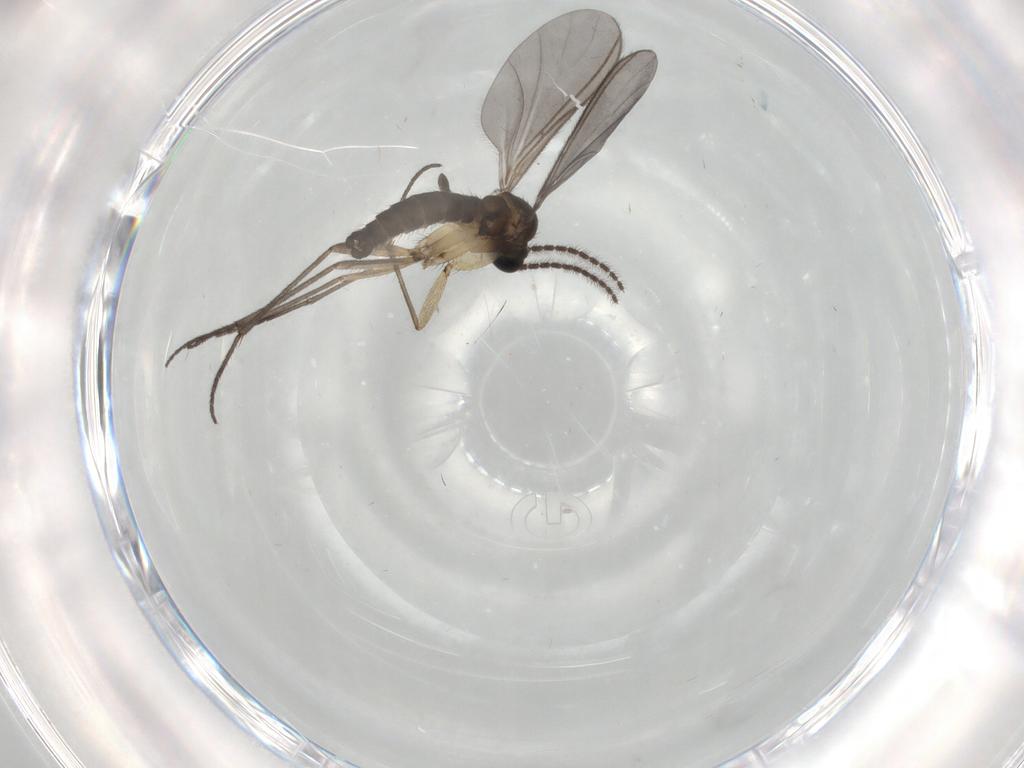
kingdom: Animalia
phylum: Arthropoda
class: Insecta
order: Diptera
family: Sciaridae
